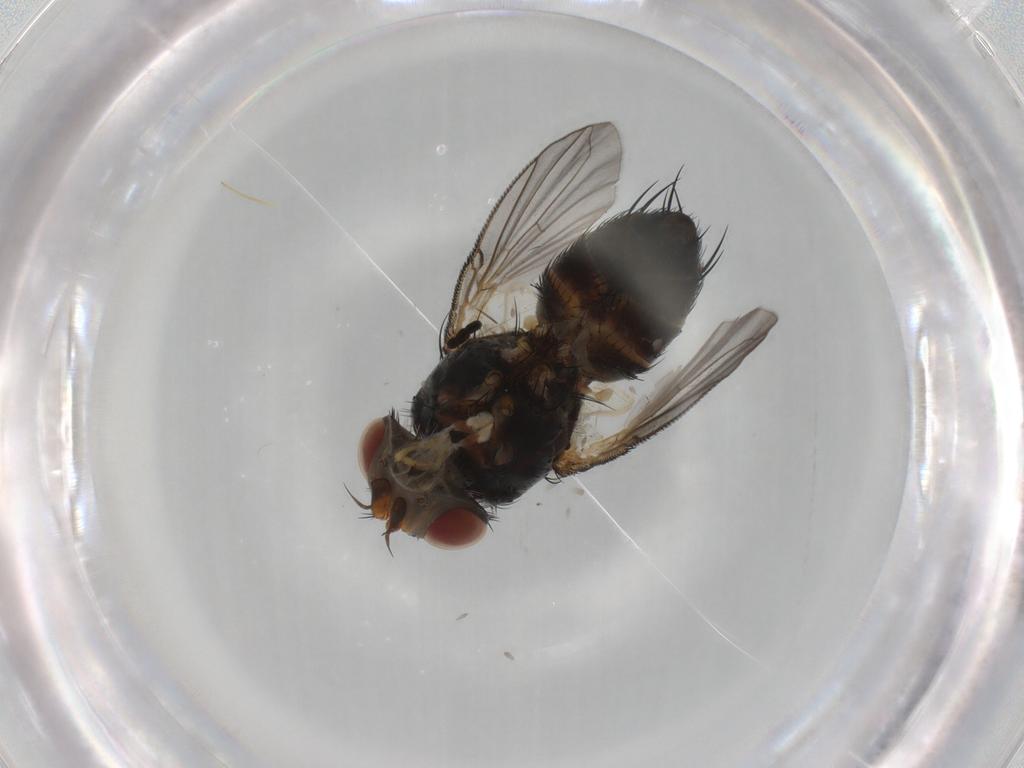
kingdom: Animalia
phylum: Arthropoda
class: Insecta
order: Diptera
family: Tachinidae
